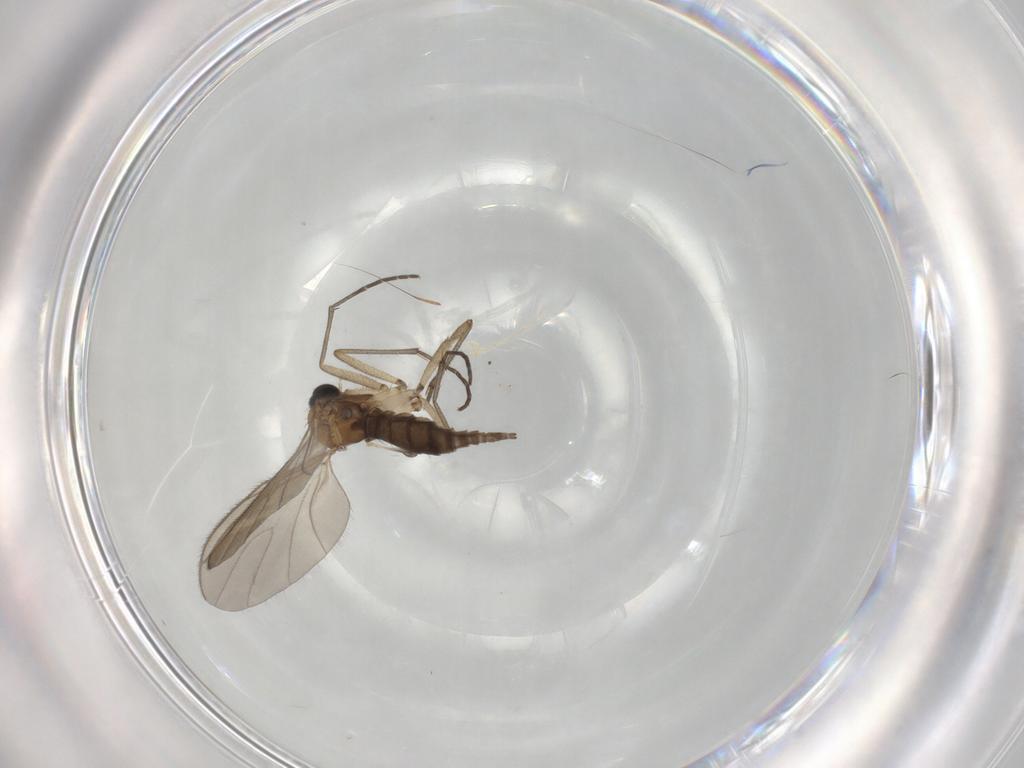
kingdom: Animalia
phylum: Arthropoda
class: Insecta
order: Diptera
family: Sciaridae
